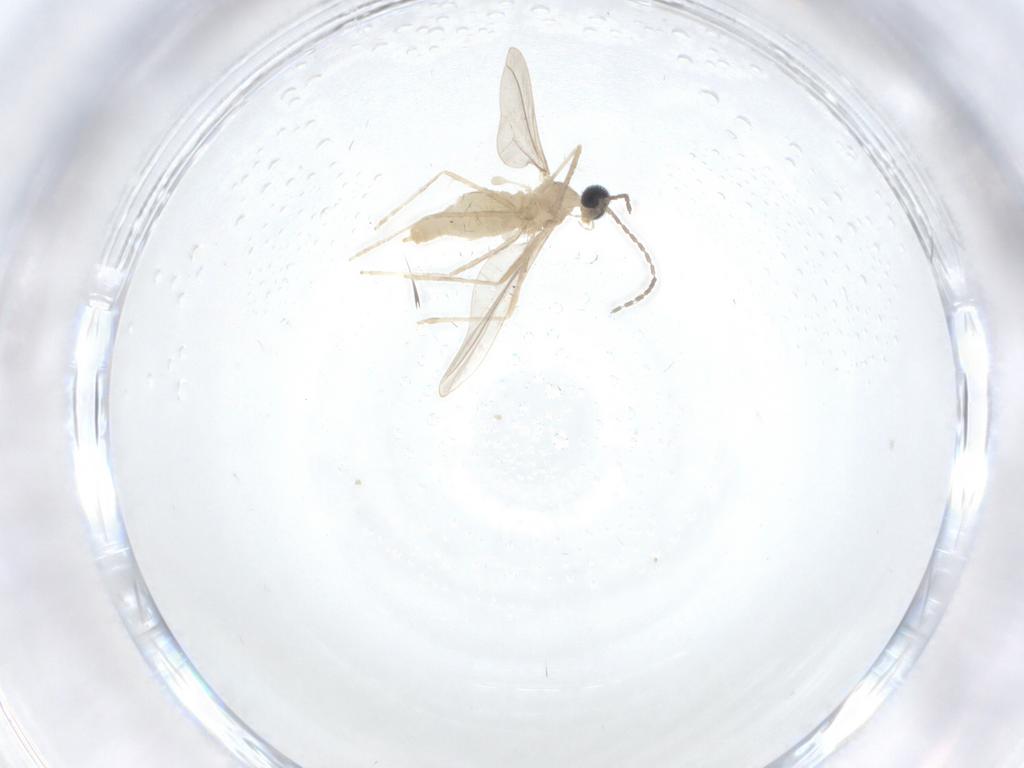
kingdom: Animalia
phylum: Arthropoda
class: Insecta
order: Diptera
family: Cecidomyiidae
